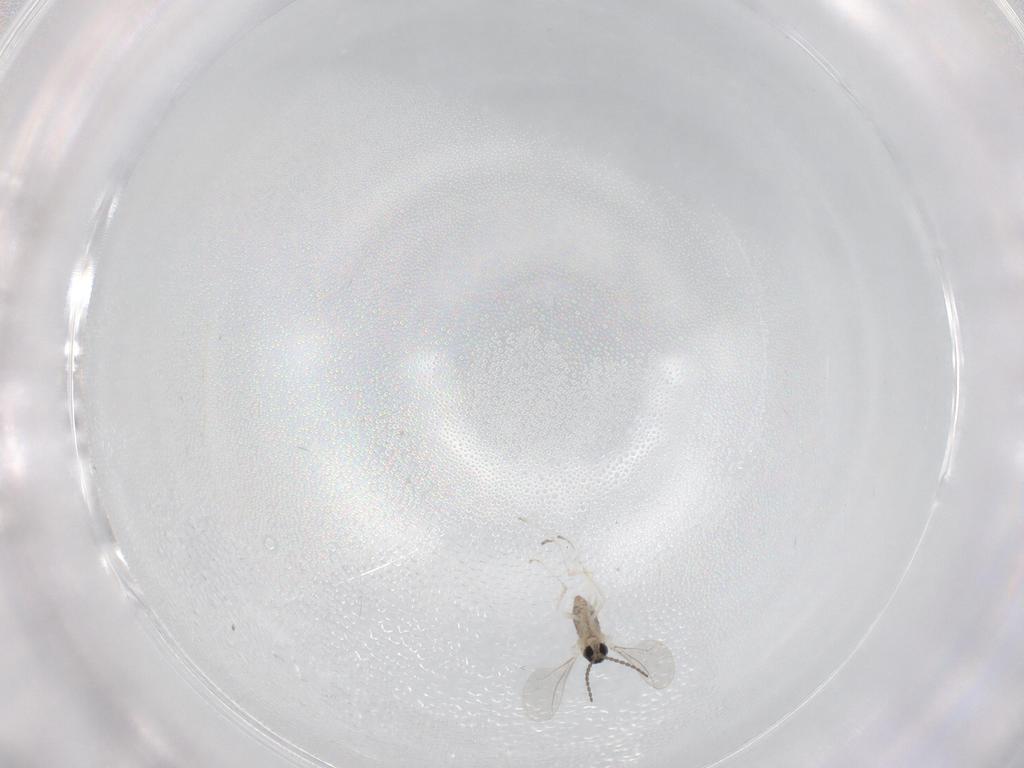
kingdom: Animalia
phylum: Arthropoda
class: Insecta
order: Diptera
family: Cecidomyiidae
